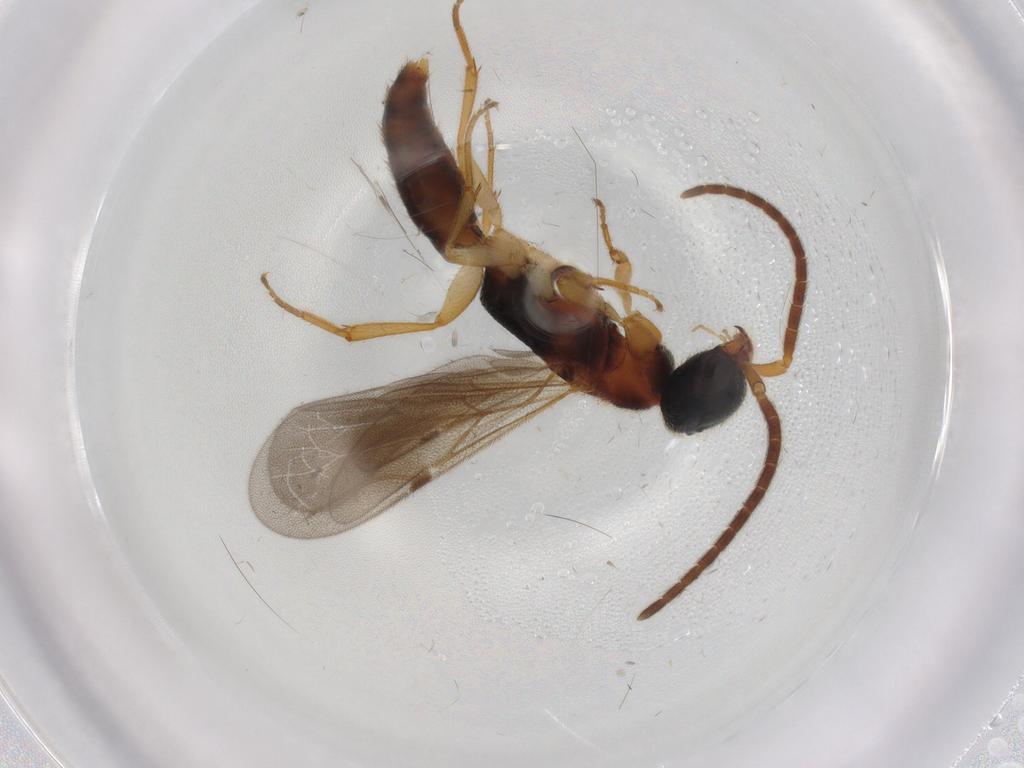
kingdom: Animalia
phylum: Arthropoda
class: Insecta
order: Hymenoptera
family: Bethylidae
